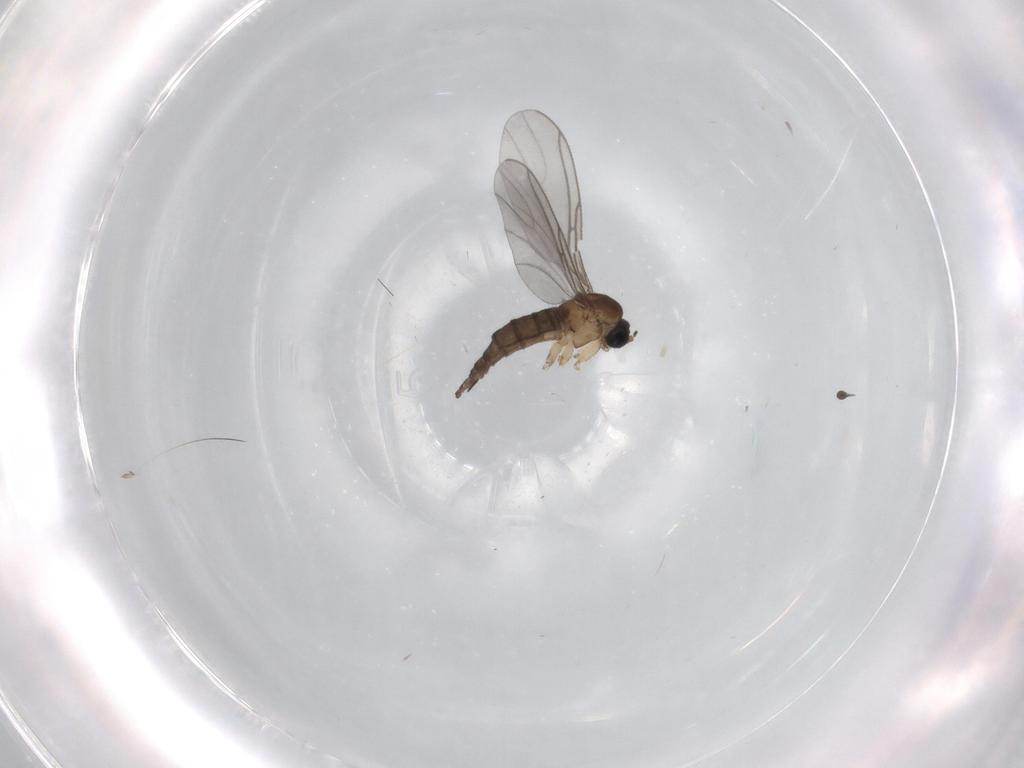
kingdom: Animalia
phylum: Arthropoda
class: Insecta
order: Diptera
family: Sciaridae
